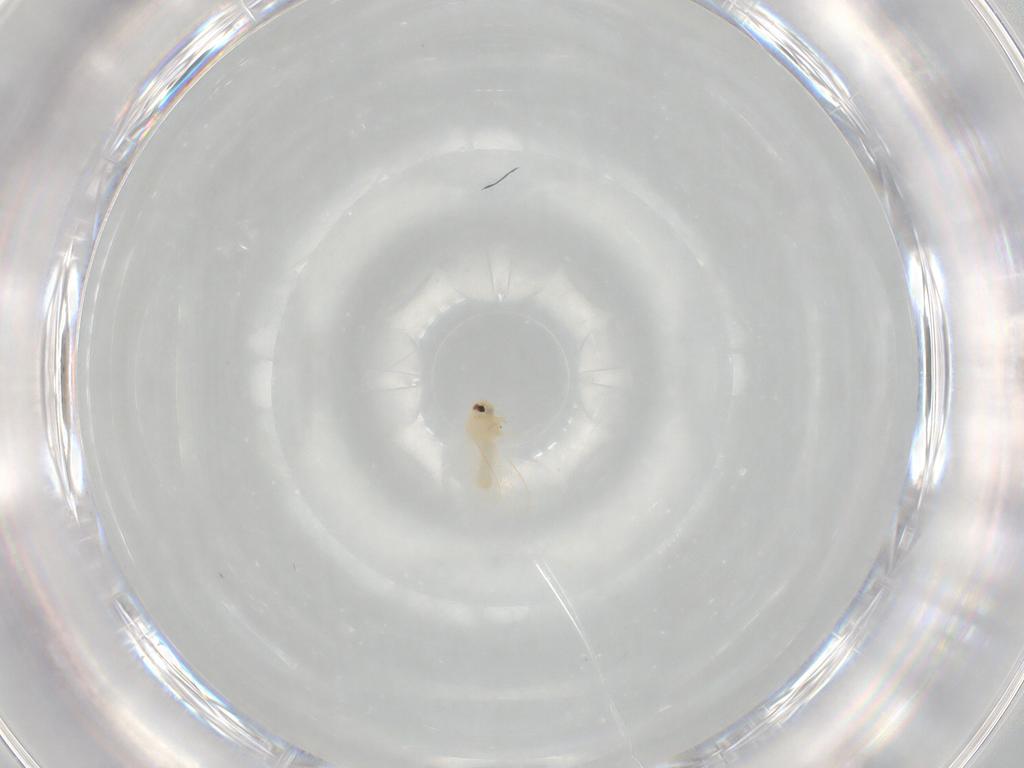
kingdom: Animalia
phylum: Arthropoda
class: Insecta
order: Hemiptera
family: Aleyrodidae
